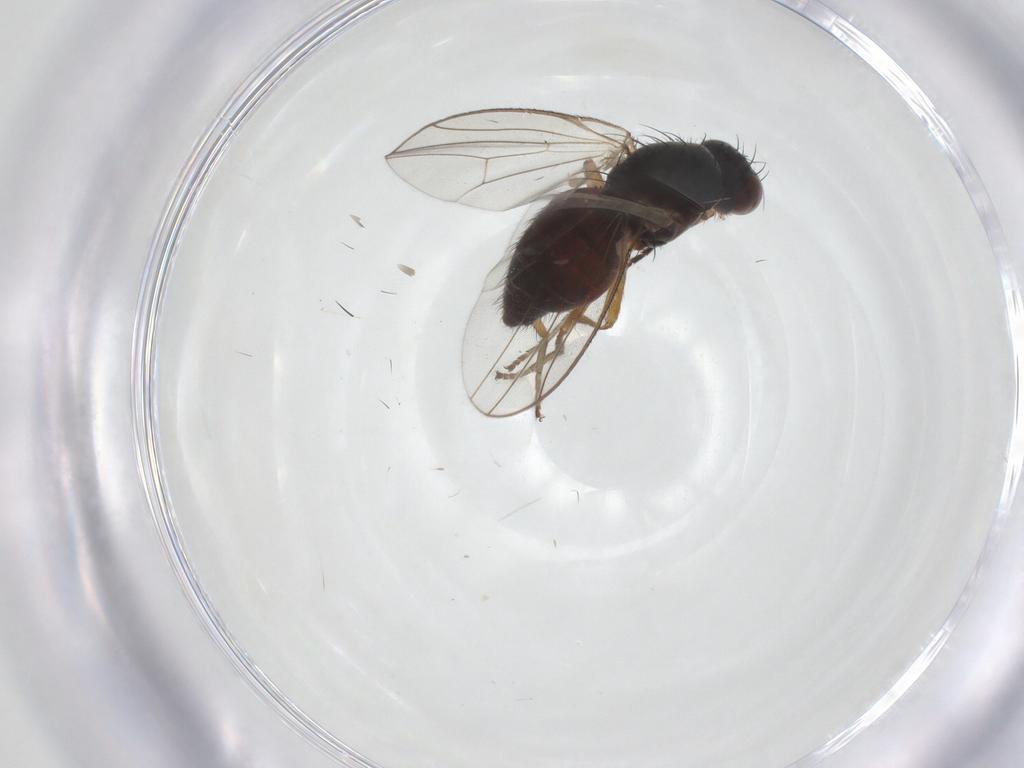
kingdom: Animalia
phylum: Arthropoda
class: Insecta
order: Diptera
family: Heleomyzidae
